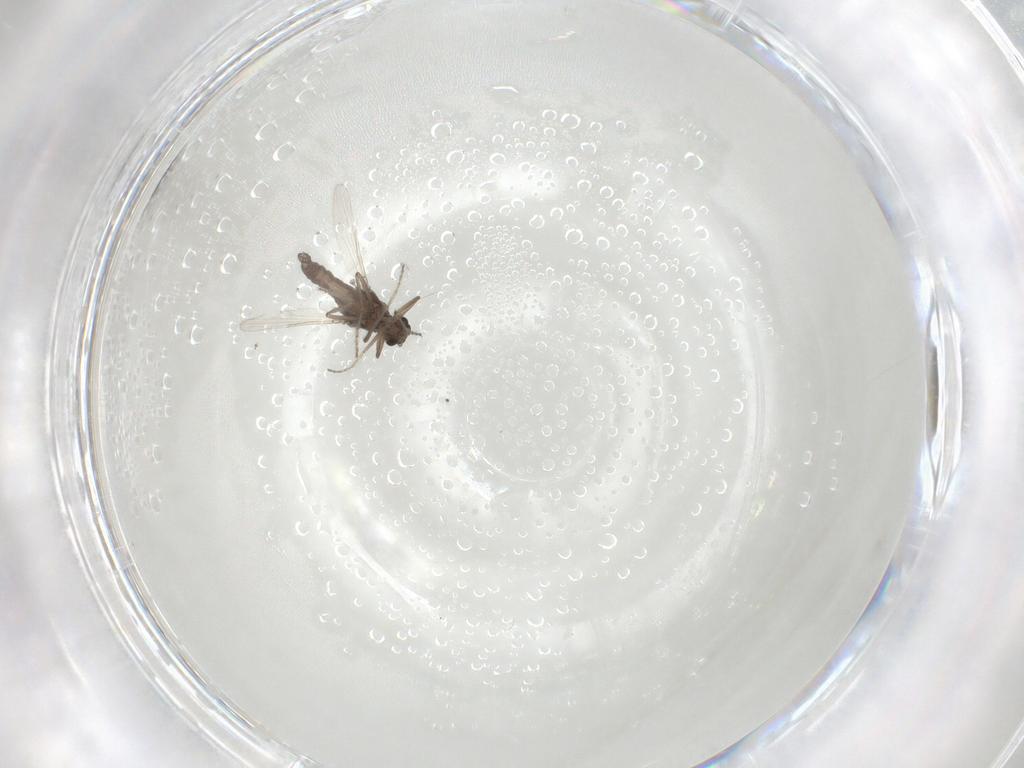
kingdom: Animalia
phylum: Arthropoda
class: Insecta
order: Diptera
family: Ceratopogonidae
